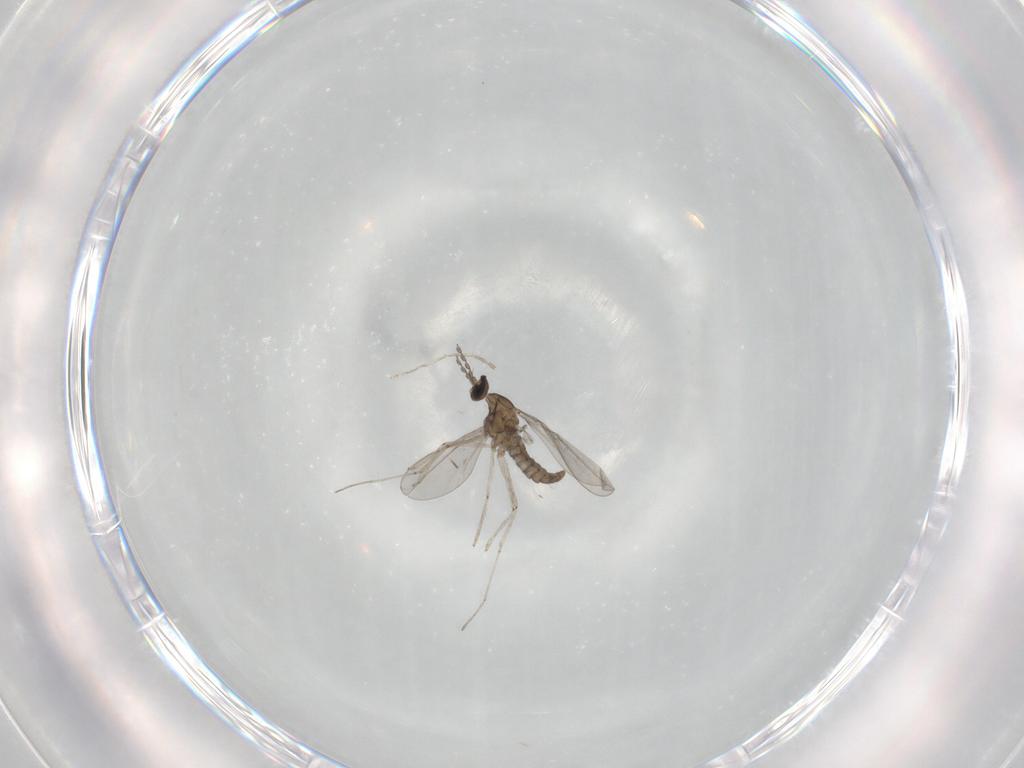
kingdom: Animalia
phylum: Arthropoda
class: Insecta
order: Diptera
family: Cecidomyiidae
